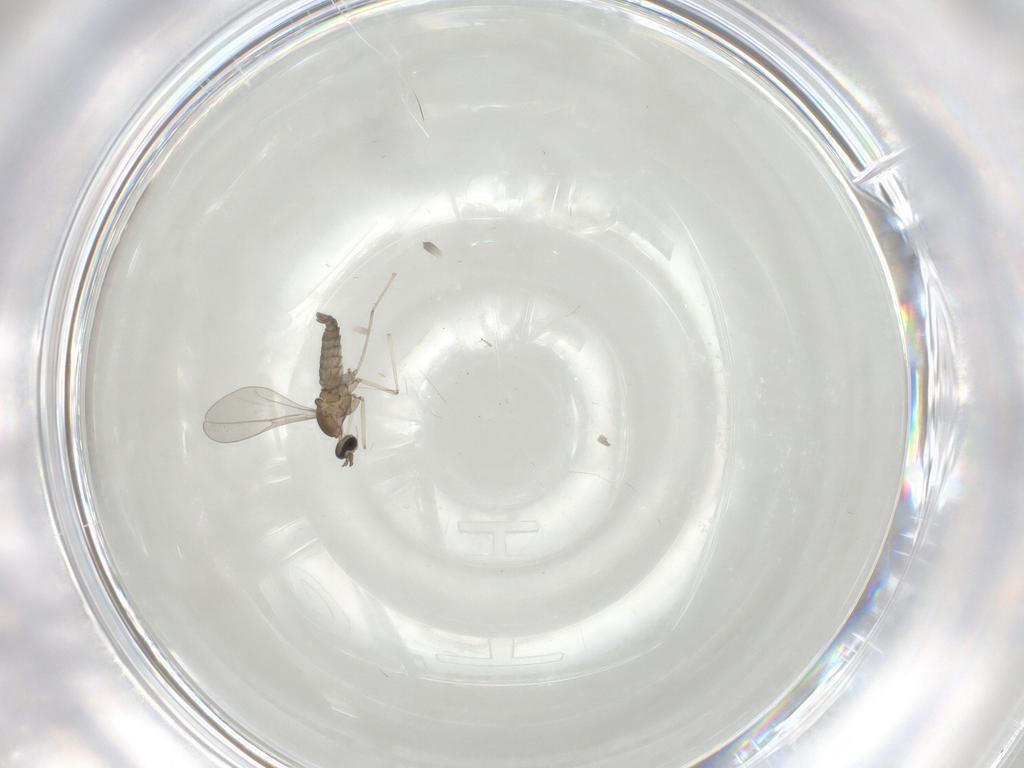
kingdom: Animalia
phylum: Arthropoda
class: Insecta
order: Diptera
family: Cecidomyiidae
